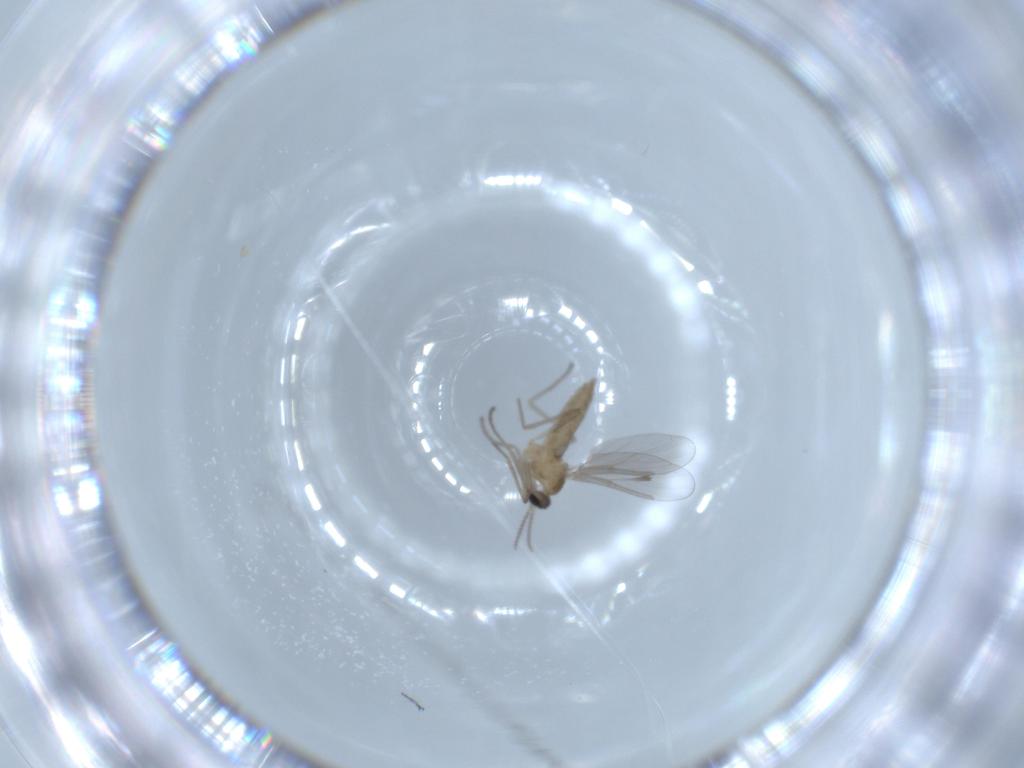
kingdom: Animalia
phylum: Arthropoda
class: Insecta
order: Diptera
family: Cecidomyiidae
